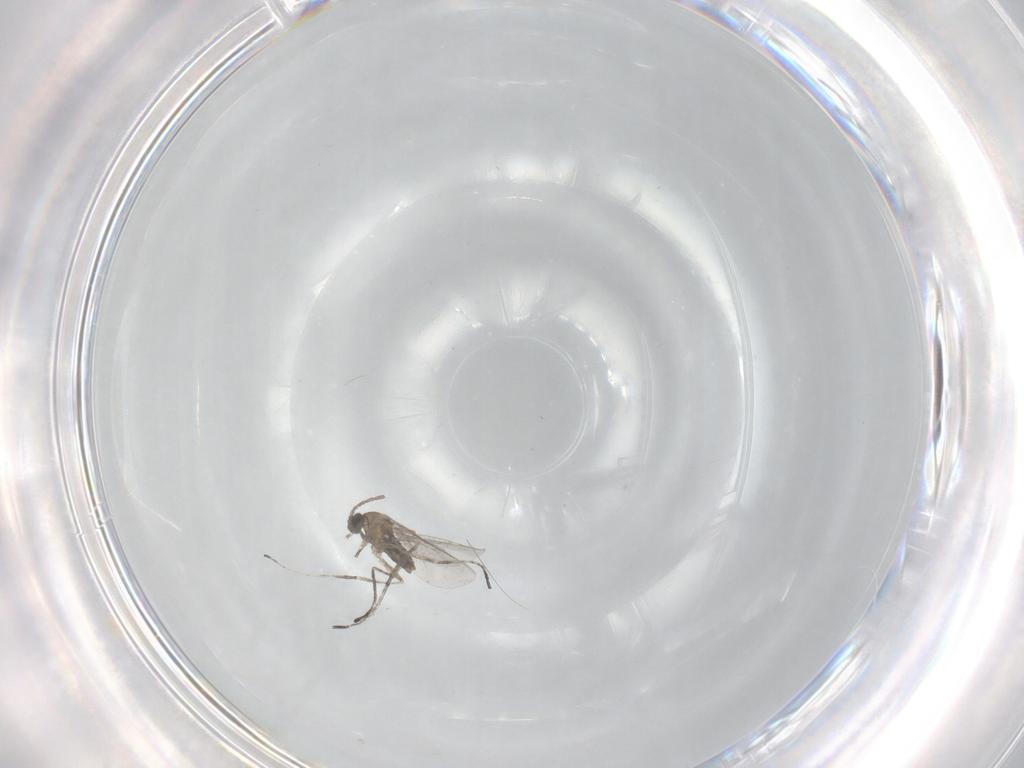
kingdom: Animalia
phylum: Arthropoda
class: Insecta
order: Diptera
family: Cecidomyiidae
